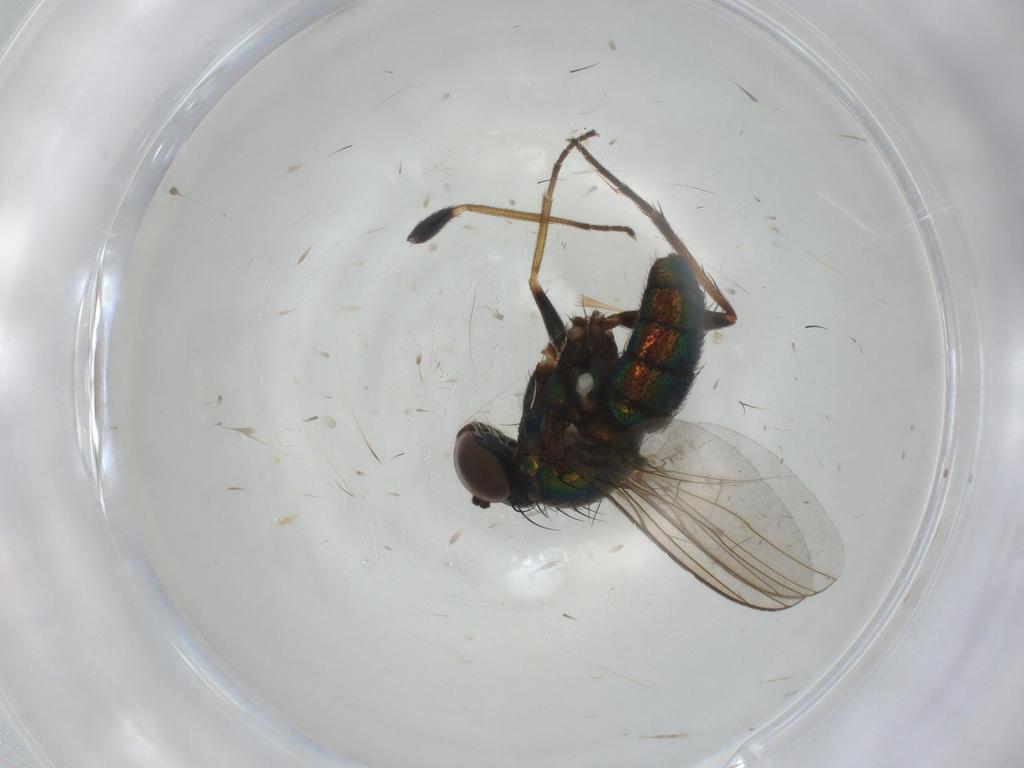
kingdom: Animalia
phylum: Arthropoda
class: Insecta
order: Diptera
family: Dolichopodidae
